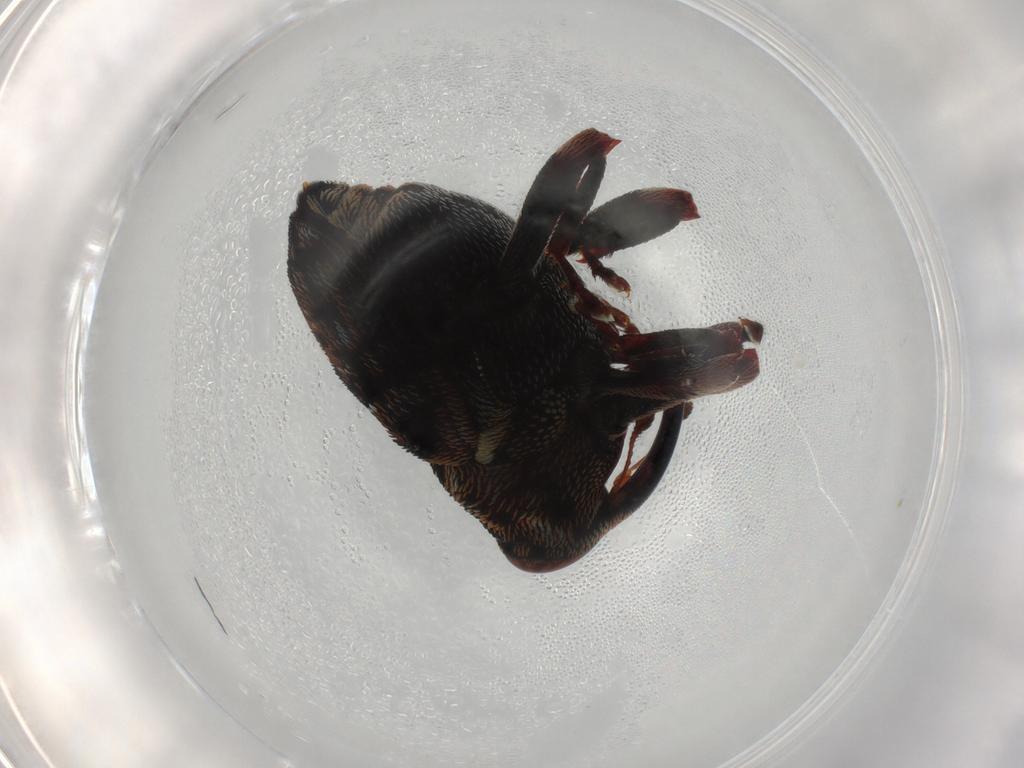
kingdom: Animalia
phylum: Arthropoda
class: Insecta
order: Coleoptera
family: Curculionidae
